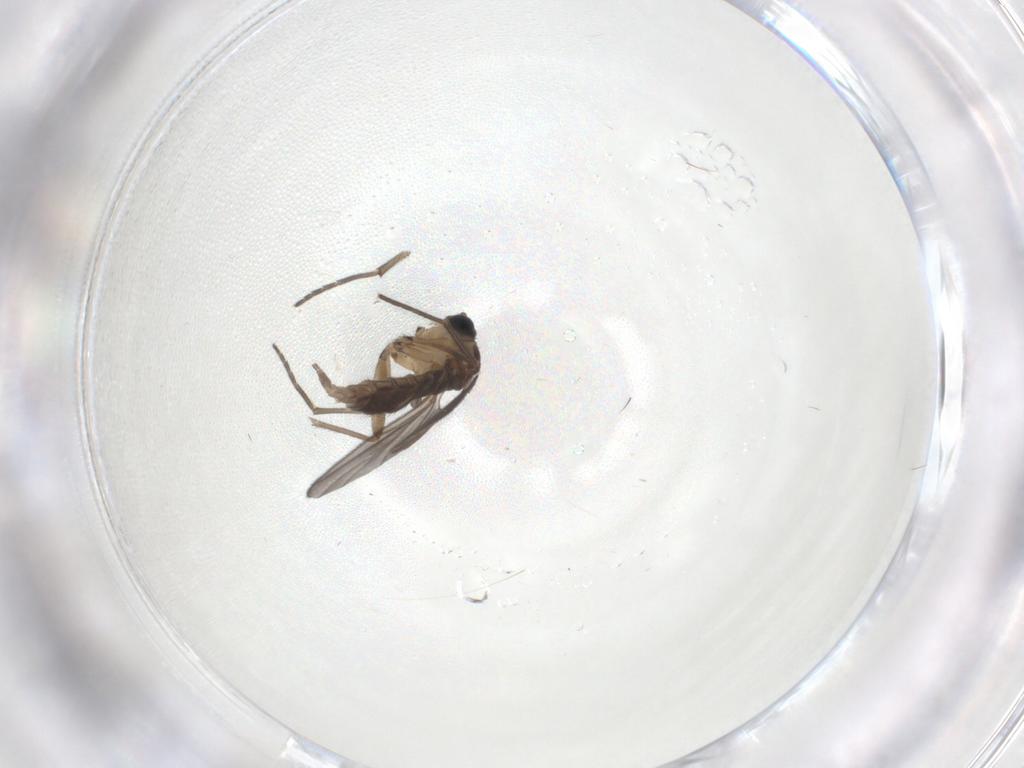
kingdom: Animalia
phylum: Arthropoda
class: Insecta
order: Diptera
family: Sciaridae
